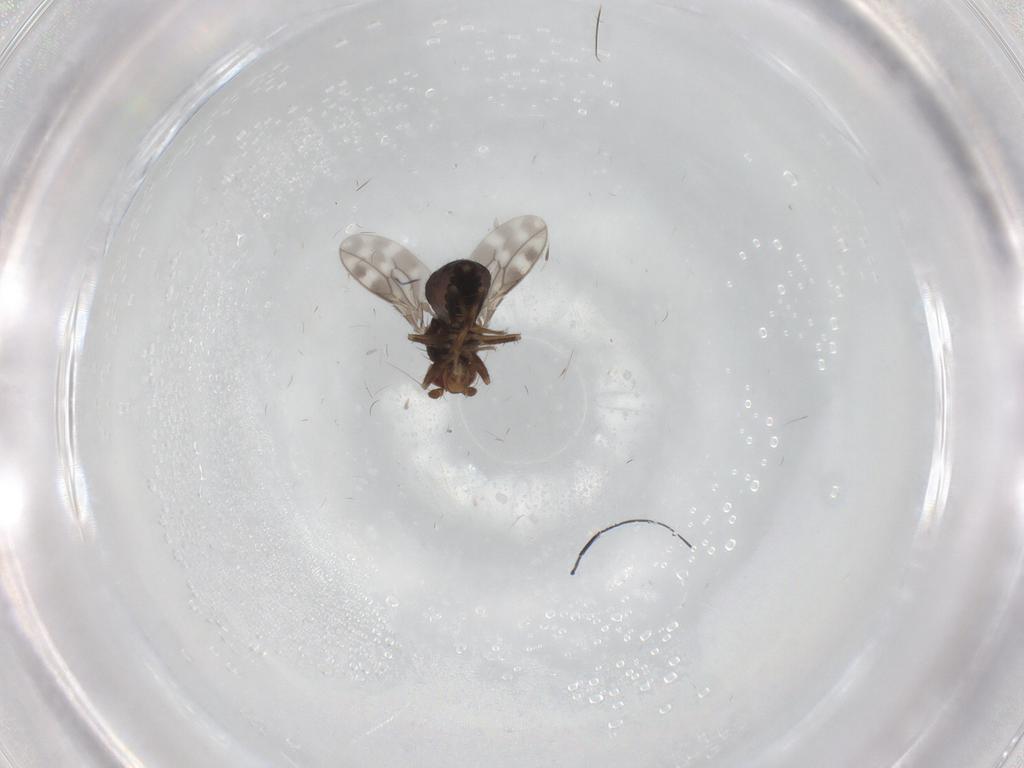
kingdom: Animalia
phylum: Arthropoda
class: Insecta
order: Diptera
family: Sphaeroceridae
